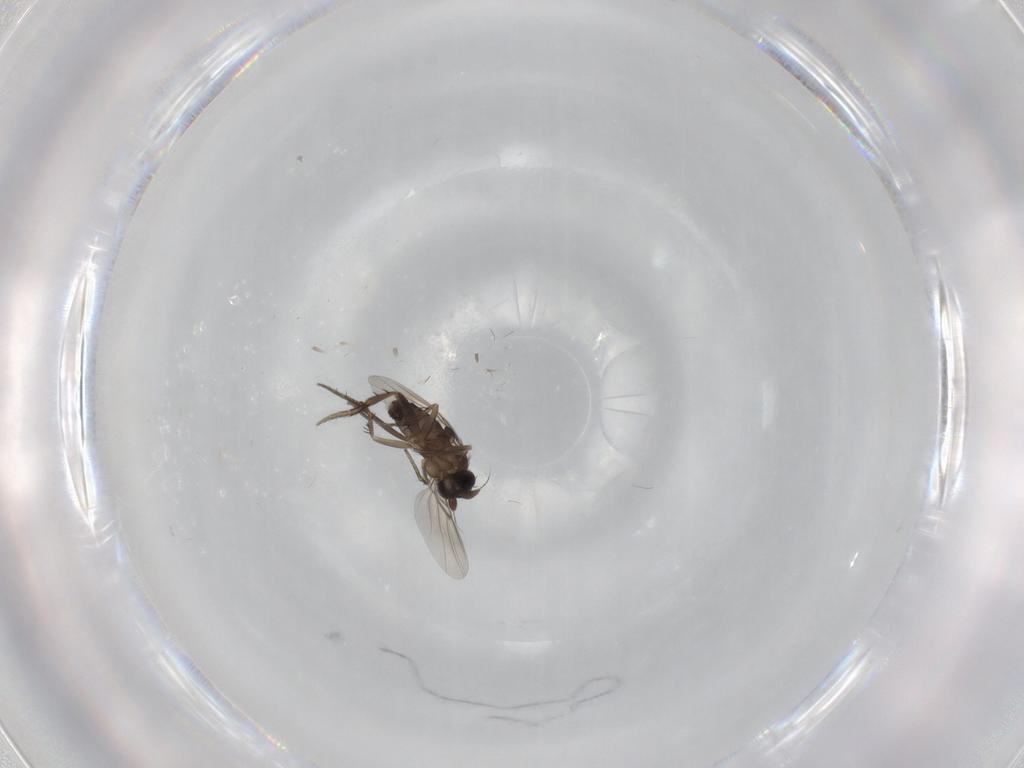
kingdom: Animalia
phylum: Arthropoda
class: Insecta
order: Diptera
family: Phoridae
